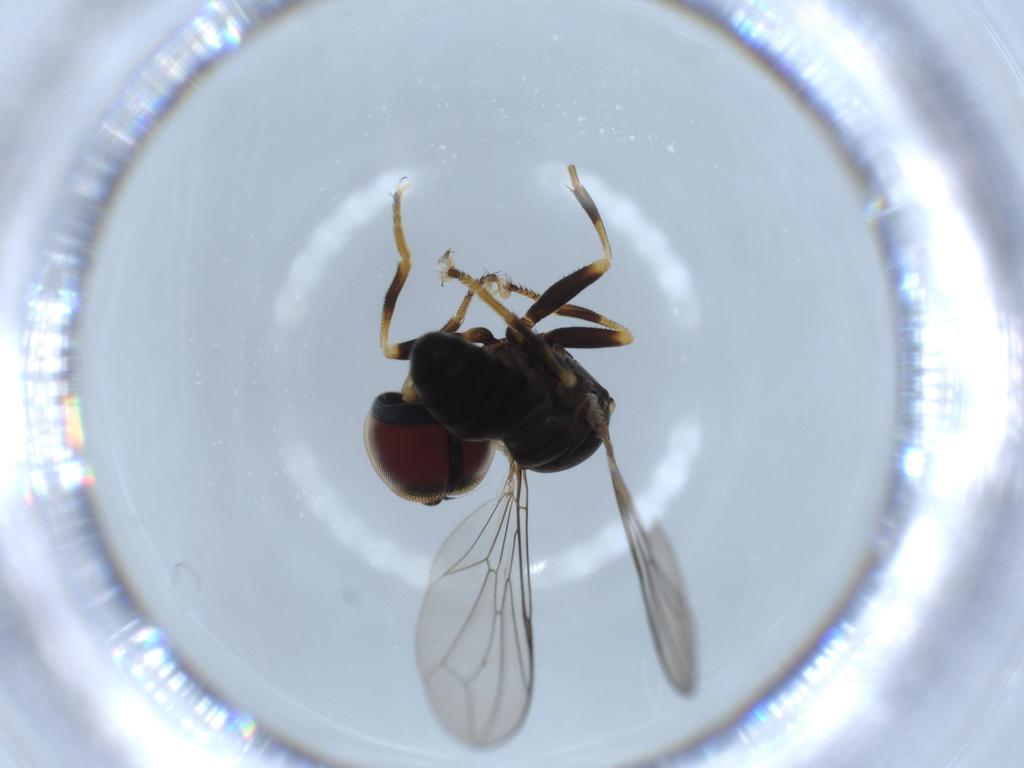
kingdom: Animalia
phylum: Arthropoda
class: Insecta
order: Diptera
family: Pipunculidae
